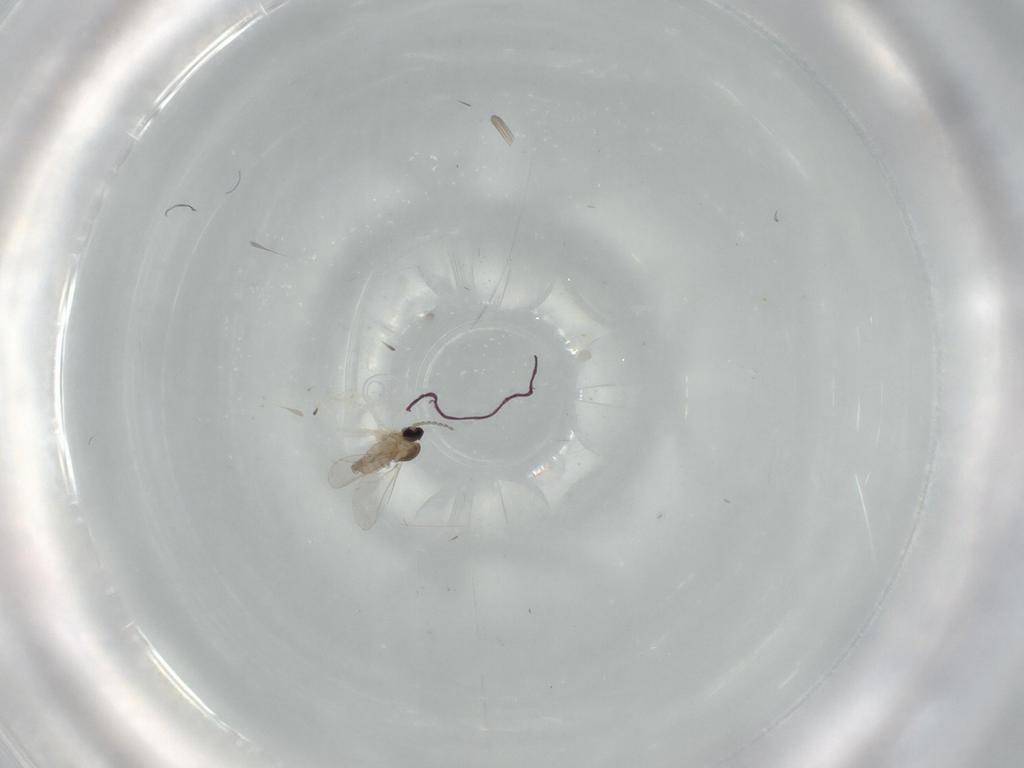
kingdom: Animalia
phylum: Arthropoda
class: Insecta
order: Diptera
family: Cecidomyiidae
